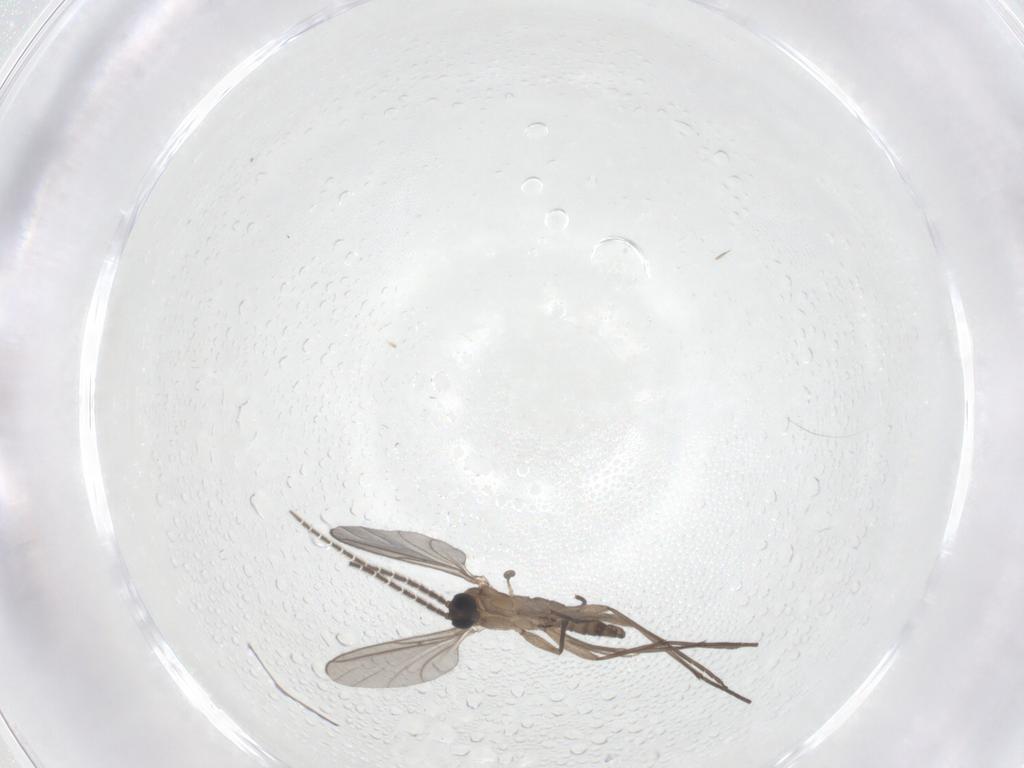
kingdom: Animalia
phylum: Arthropoda
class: Insecta
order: Diptera
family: Sciaridae
